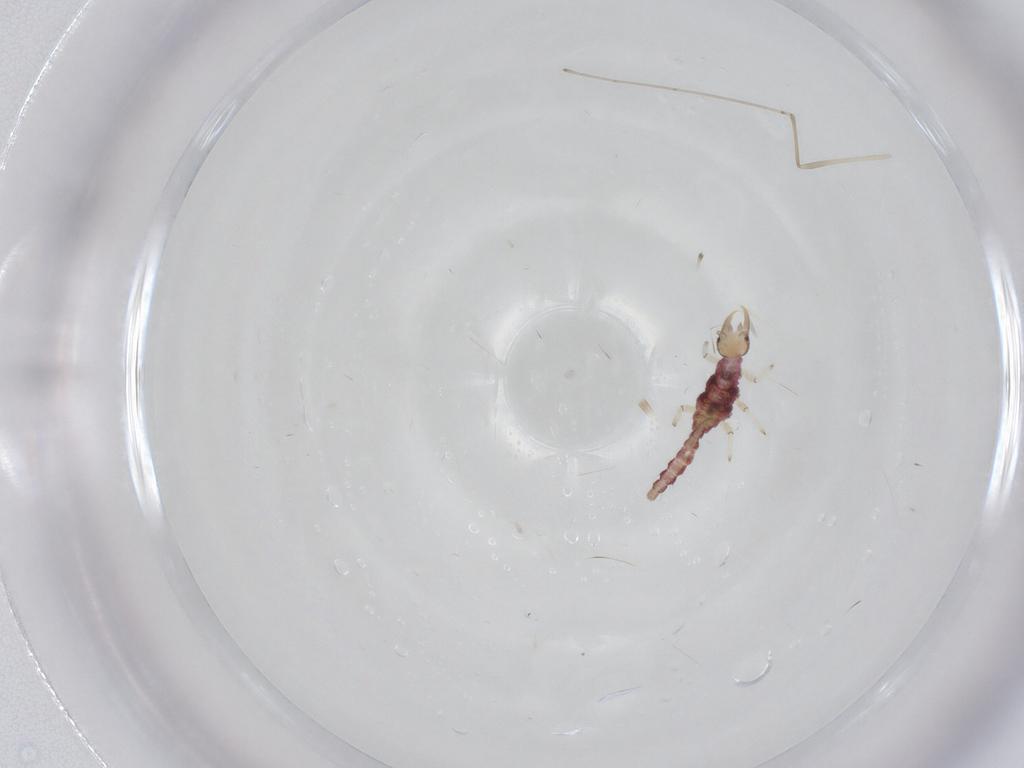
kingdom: Animalia
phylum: Arthropoda
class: Insecta
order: Neuroptera
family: Hemerobiidae
